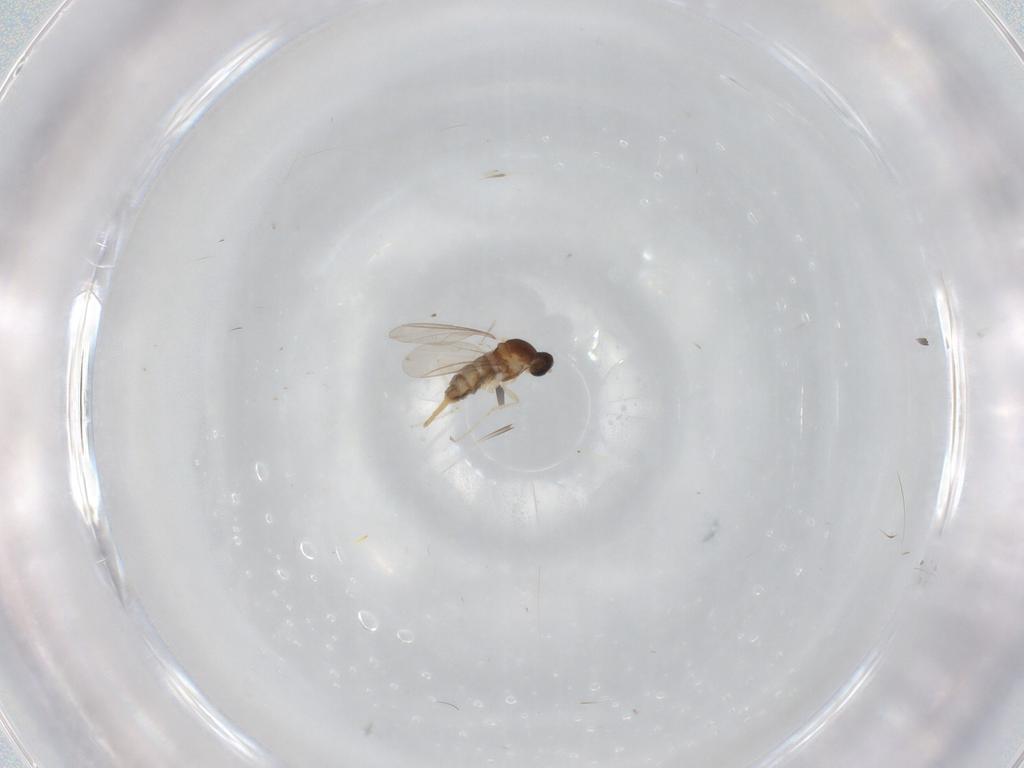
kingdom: Animalia
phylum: Arthropoda
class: Insecta
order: Diptera
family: Cecidomyiidae
